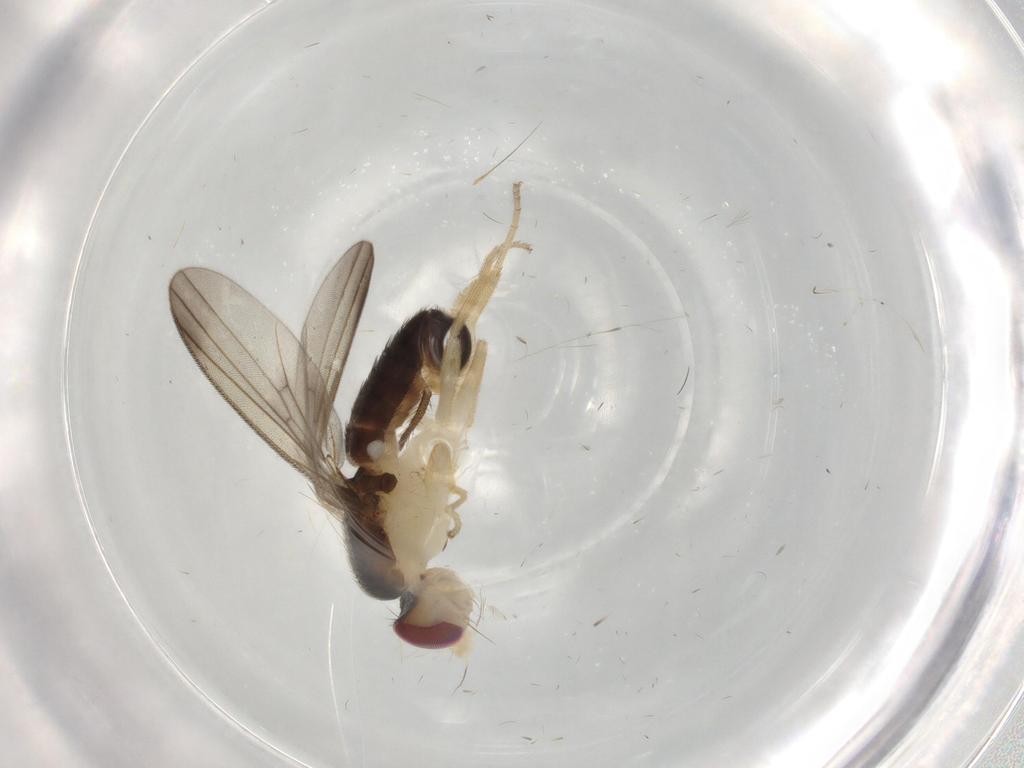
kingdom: Animalia
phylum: Arthropoda
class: Insecta
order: Diptera
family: Clusiidae
